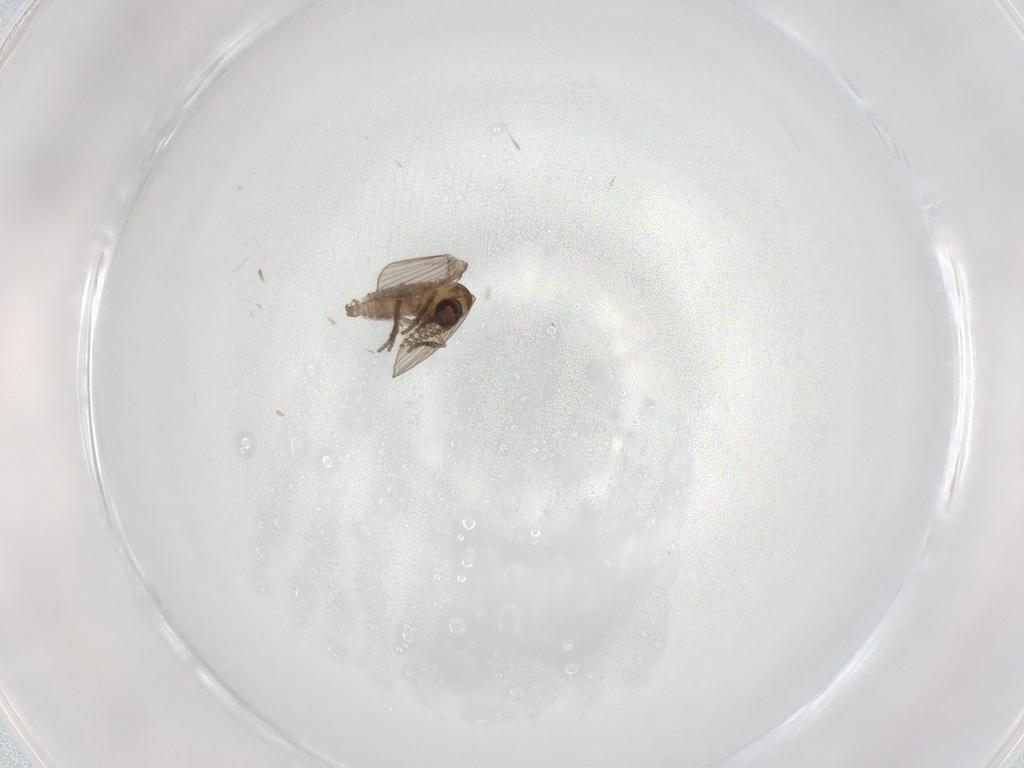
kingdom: Animalia
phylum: Arthropoda
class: Insecta
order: Diptera
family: Psychodidae
